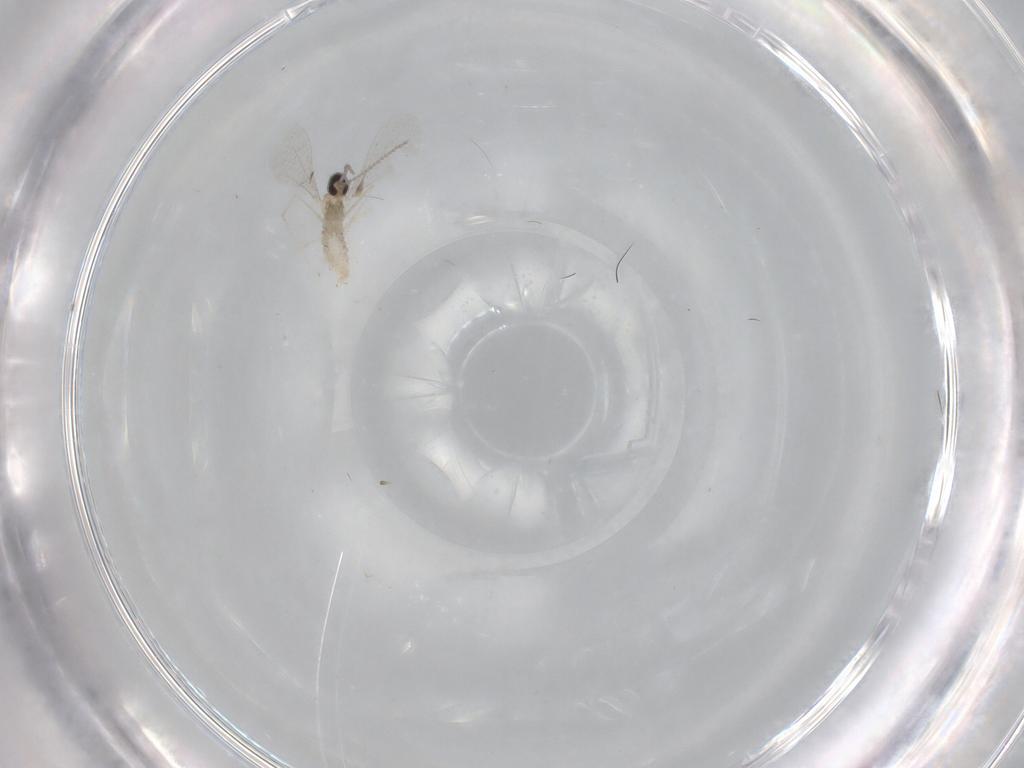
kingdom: Animalia
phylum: Arthropoda
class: Insecta
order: Diptera
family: Cecidomyiidae
